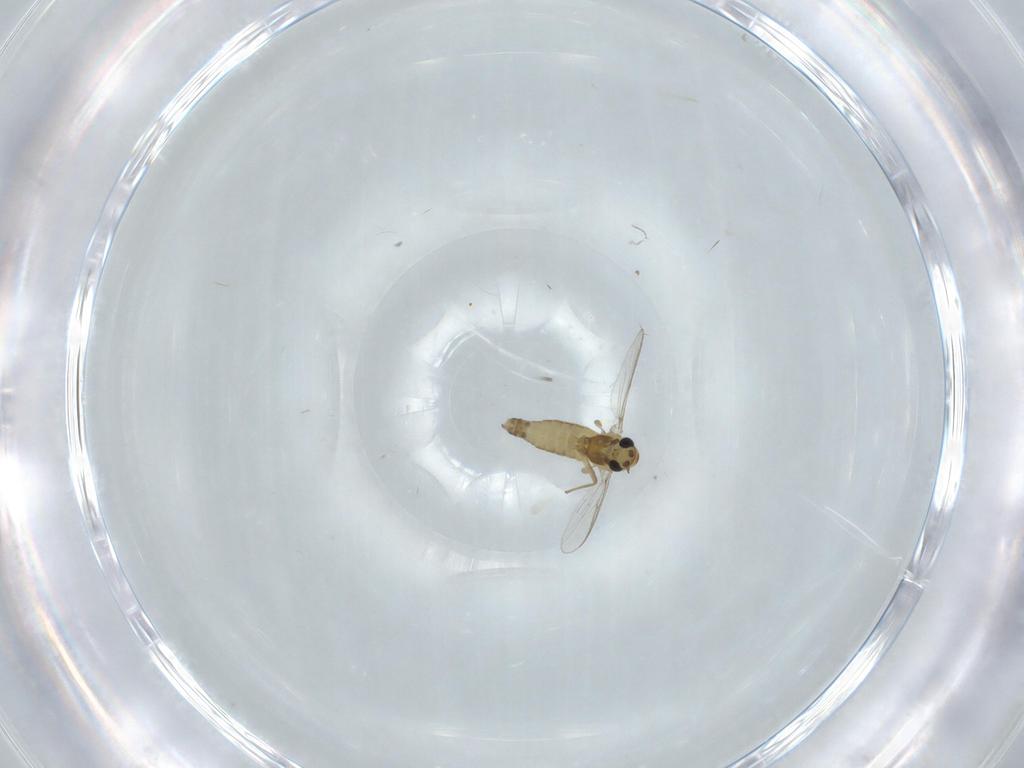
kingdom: Animalia
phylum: Arthropoda
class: Insecta
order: Diptera
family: Chironomidae
